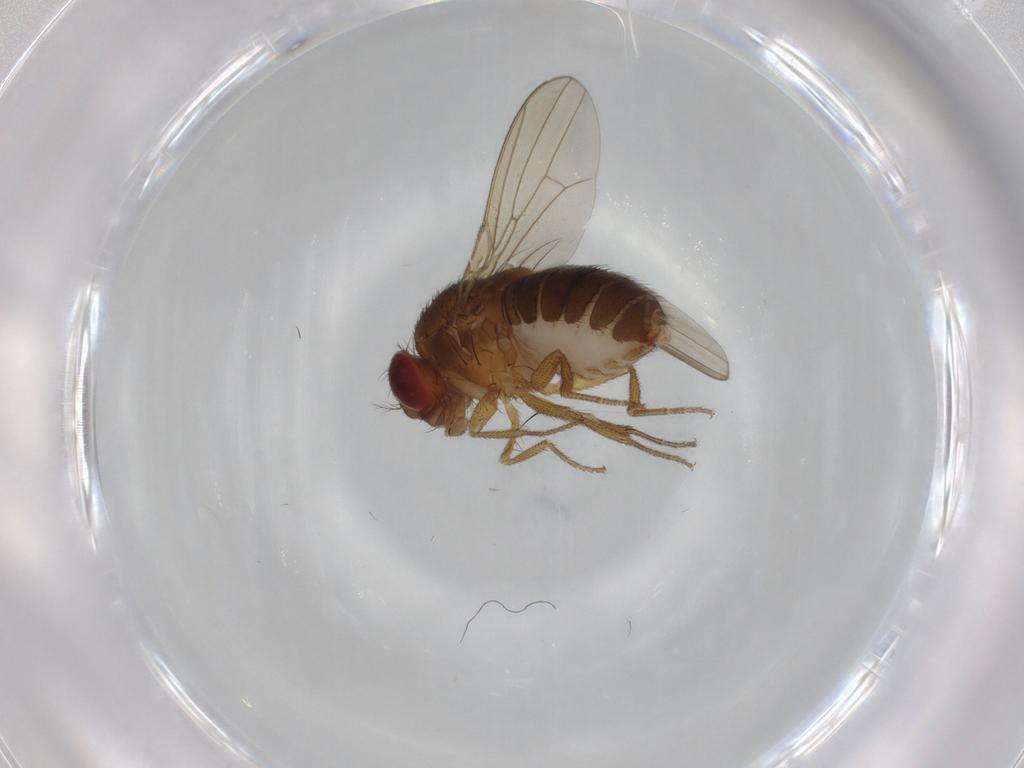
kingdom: Animalia
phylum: Arthropoda
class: Insecta
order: Diptera
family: Drosophilidae
